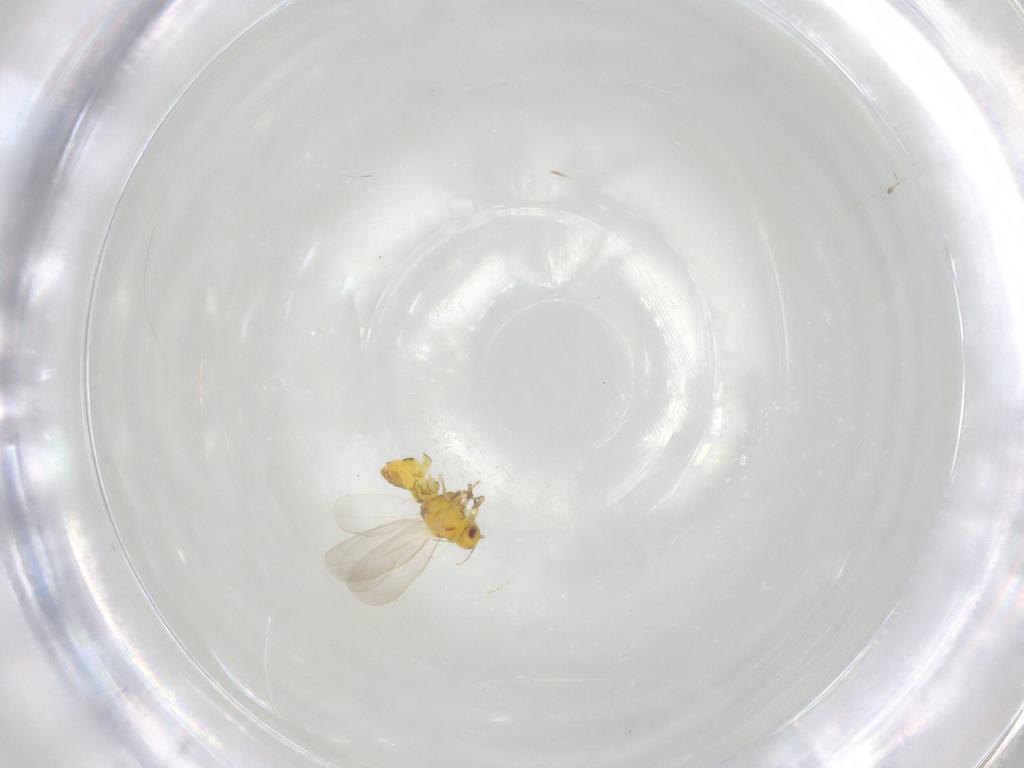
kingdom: Animalia
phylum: Arthropoda
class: Insecta
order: Hemiptera
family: Aleyrodidae
